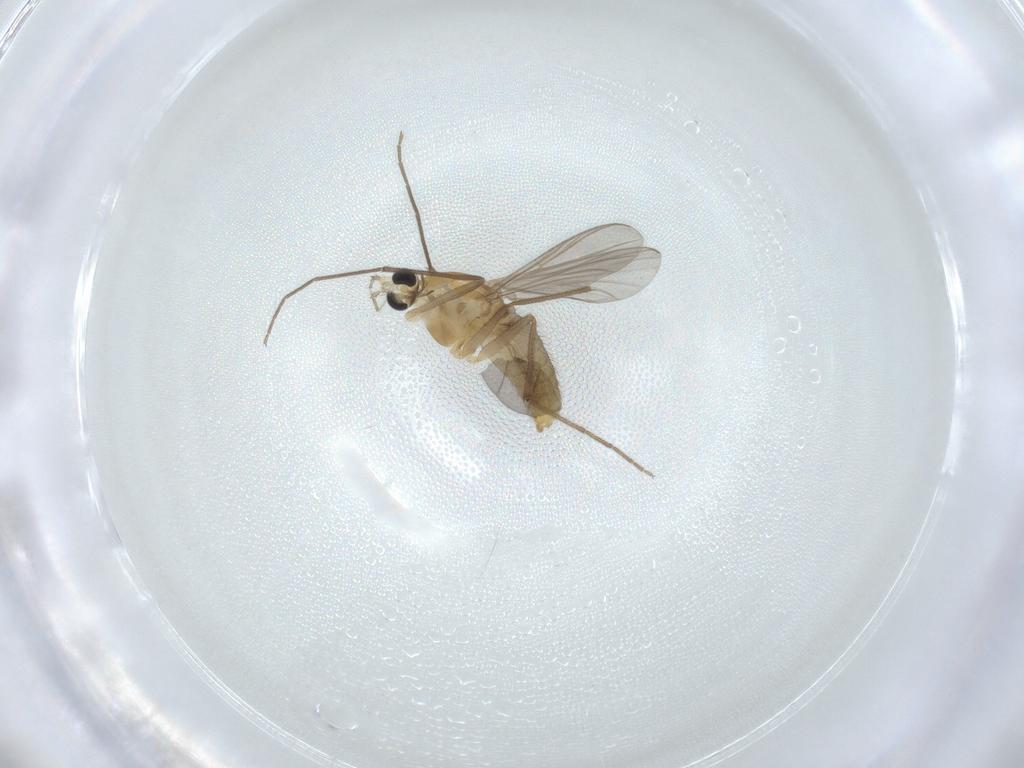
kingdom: Animalia
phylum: Arthropoda
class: Insecta
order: Diptera
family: Chironomidae
